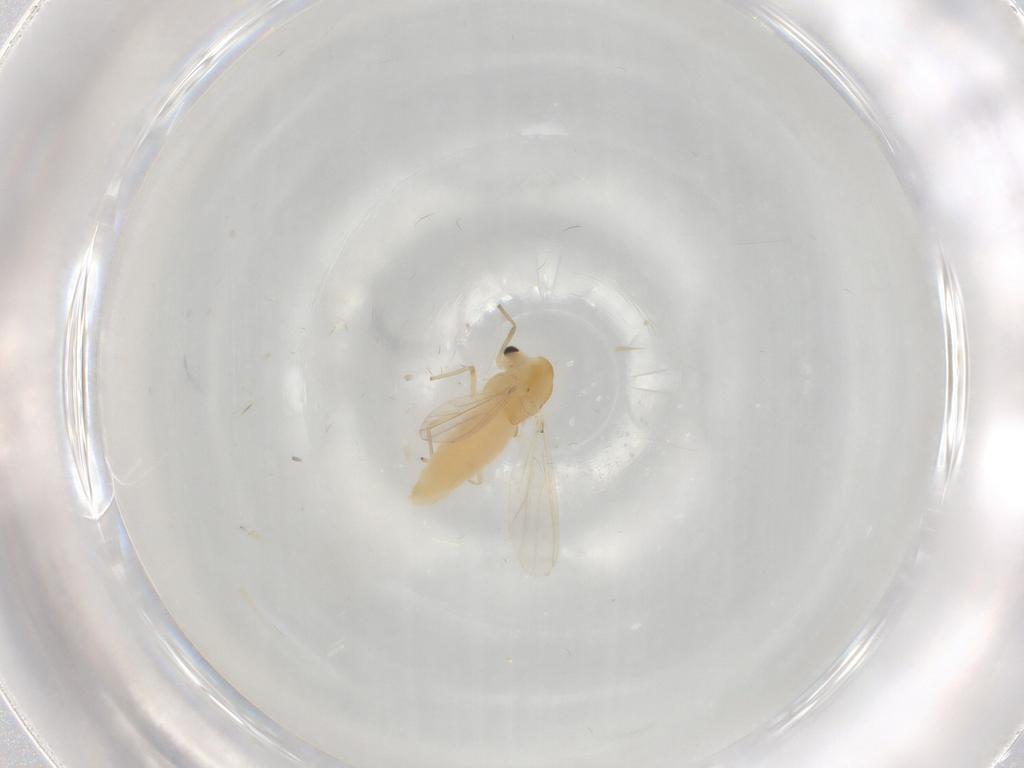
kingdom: Animalia
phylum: Arthropoda
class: Insecta
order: Diptera
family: Chironomidae
